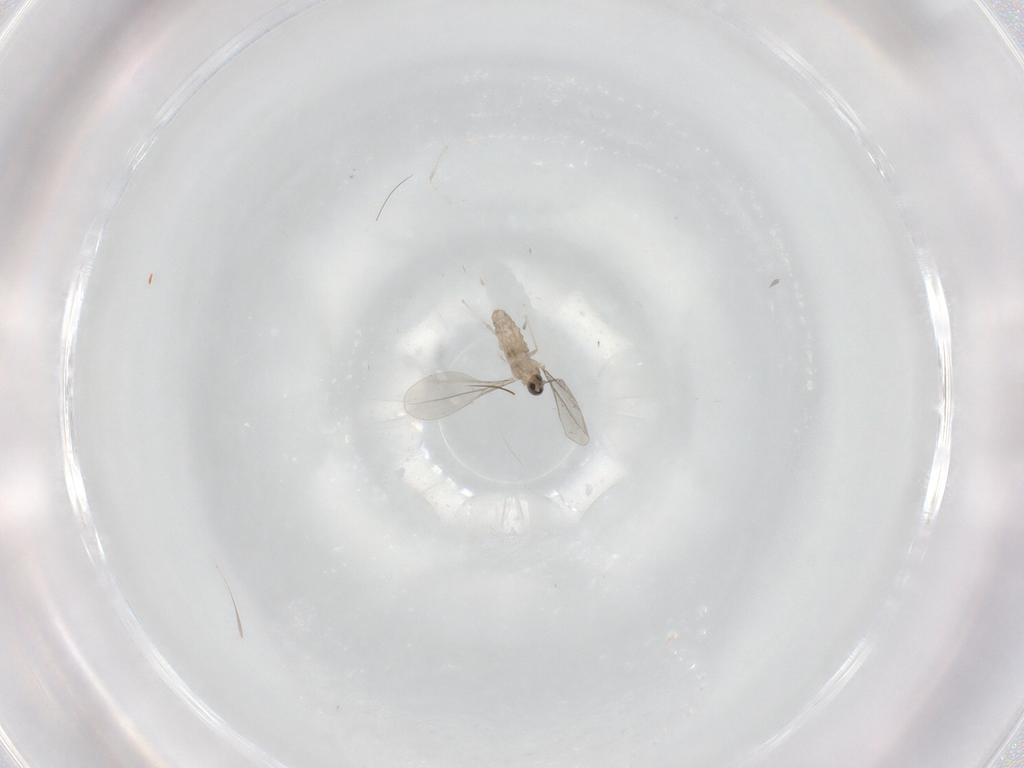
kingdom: Animalia
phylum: Arthropoda
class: Insecta
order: Diptera
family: Cecidomyiidae
